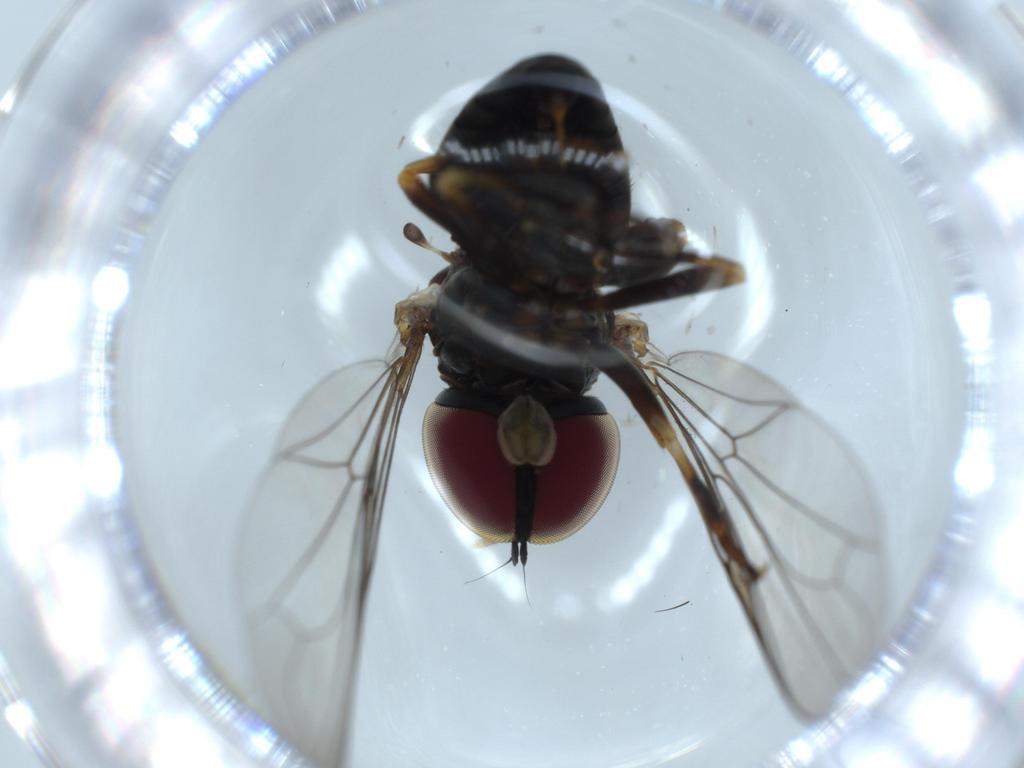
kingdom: Animalia
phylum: Arthropoda
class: Insecta
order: Diptera
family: Pipunculidae
